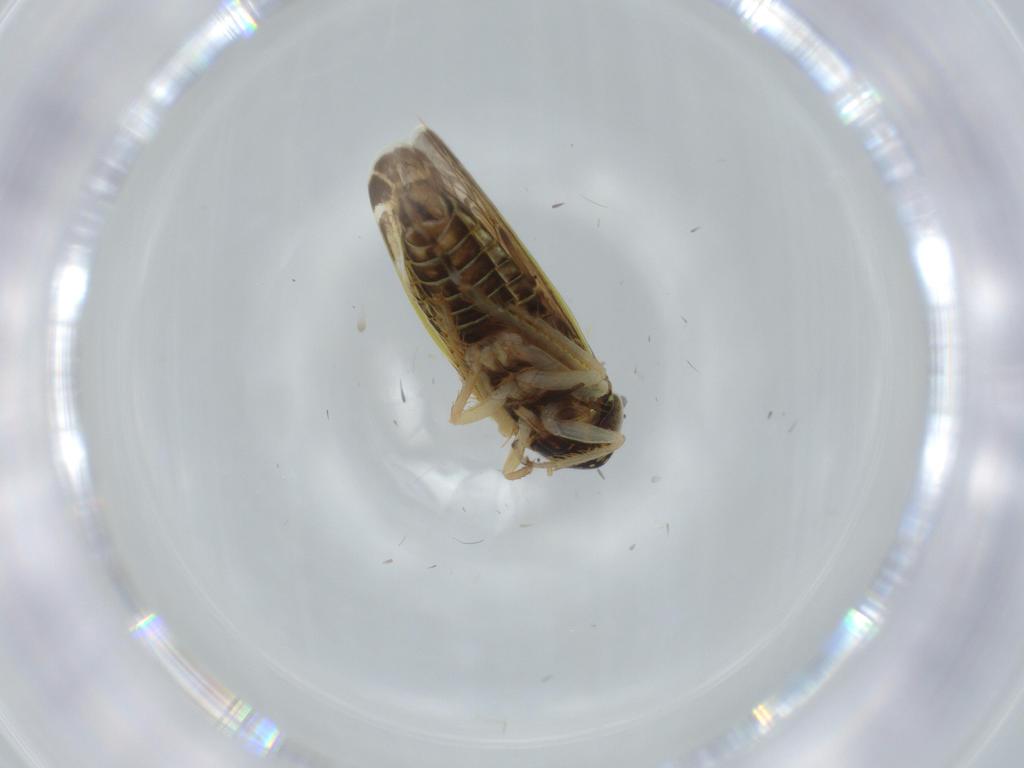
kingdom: Animalia
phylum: Arthropoda
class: Insecta
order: Hemiptera
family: Cicadellidae
